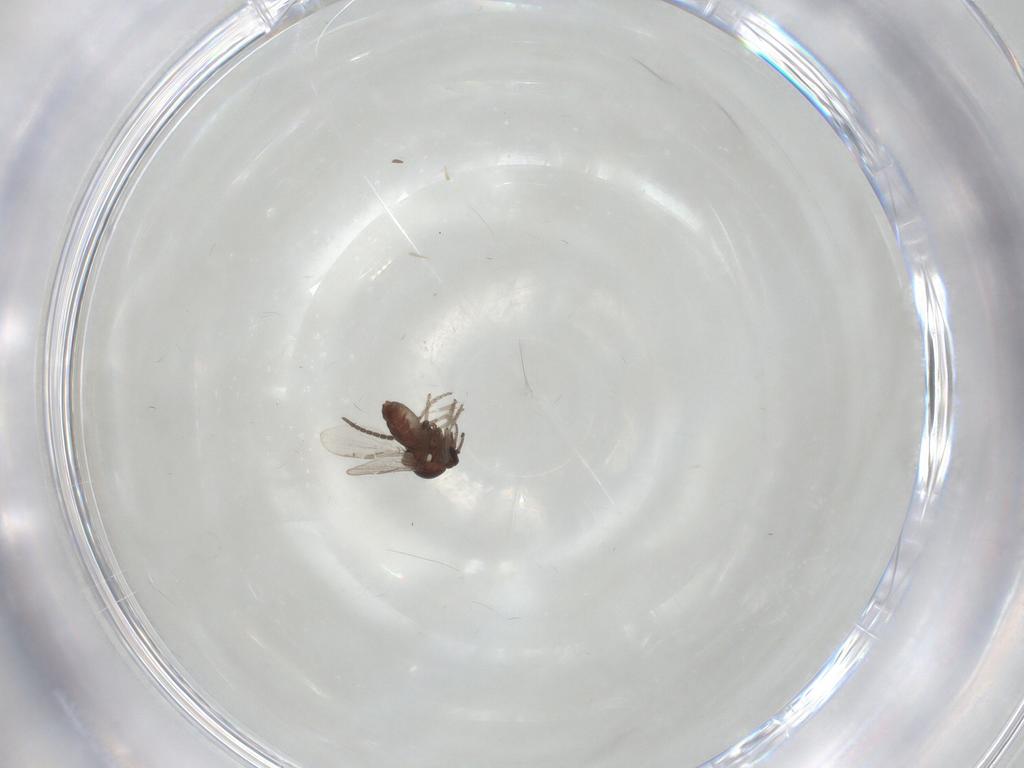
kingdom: Animalia
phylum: Arthropoda
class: Insecta
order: Diptera
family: Ceratopogonidae
